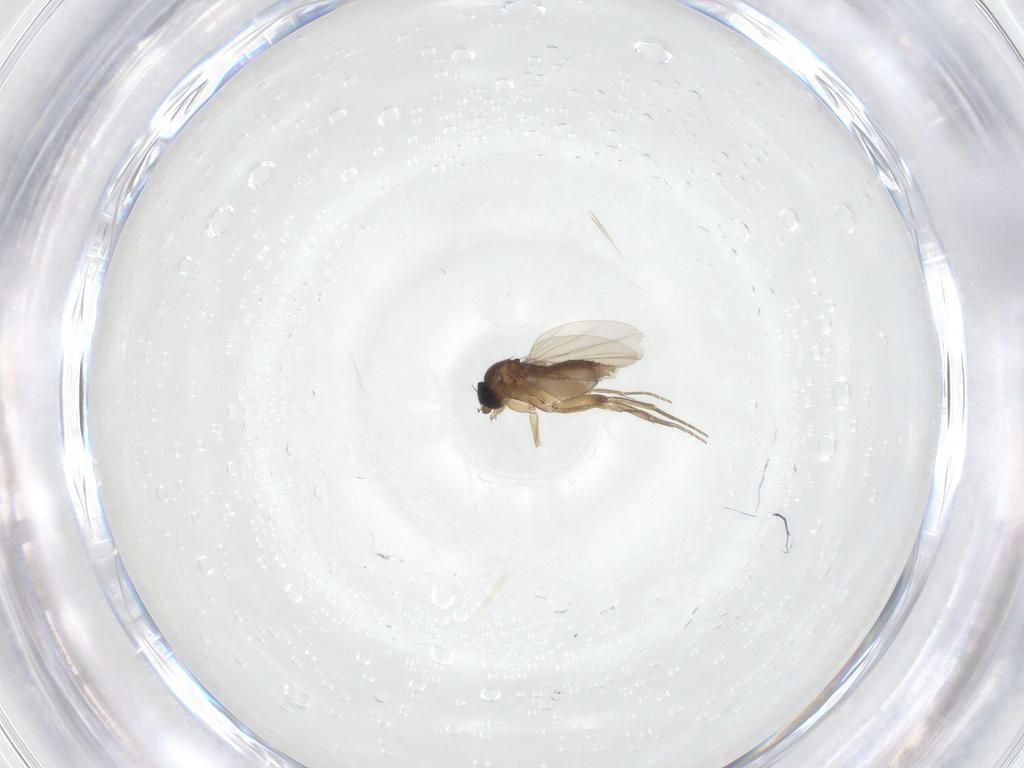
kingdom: Animalia
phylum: Arthropoda
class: Insecta
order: Diptera
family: Phoridae
